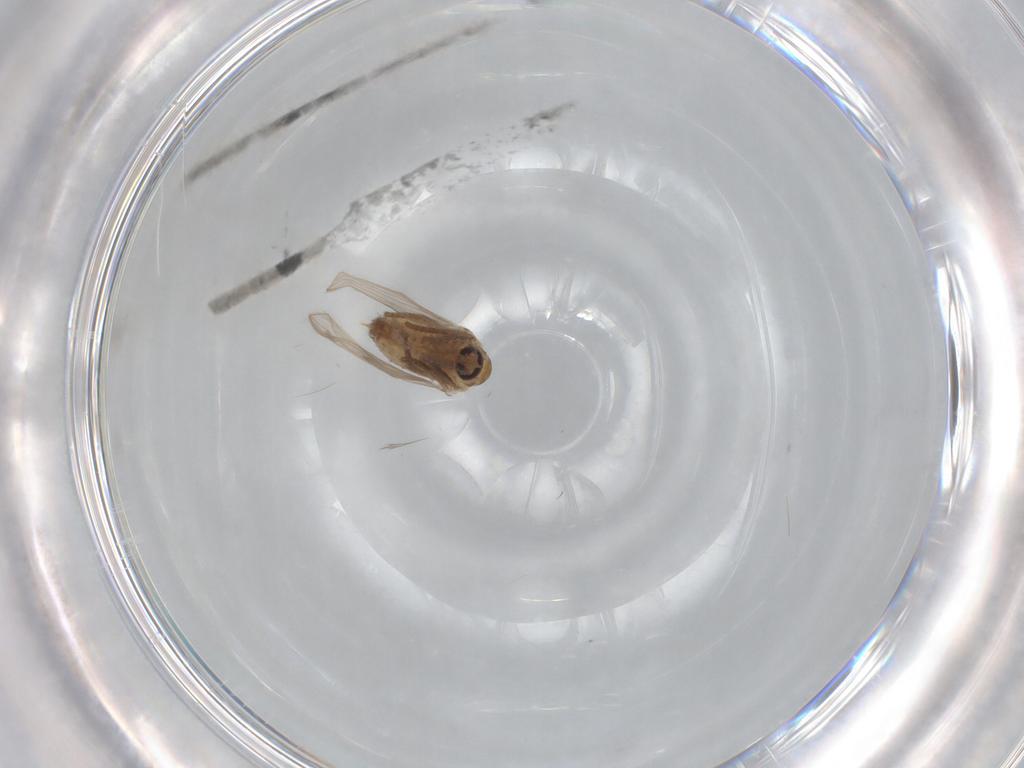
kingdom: Animalia
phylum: Arthropoda
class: Insecta
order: Diptera
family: Psychodidae
